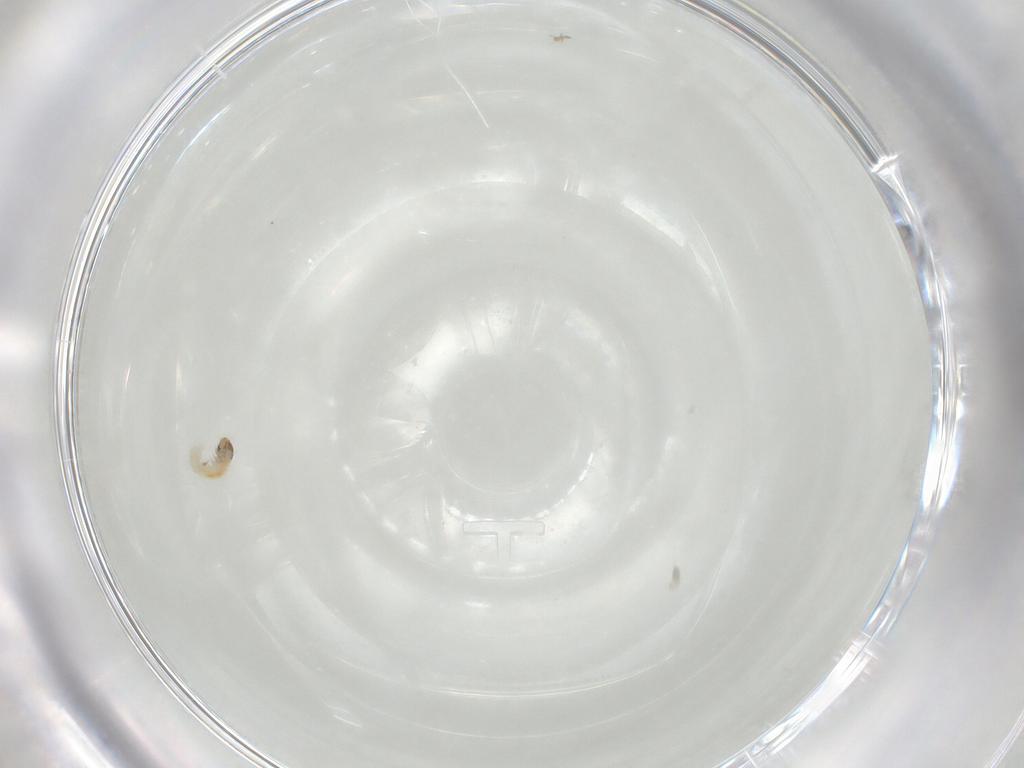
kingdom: Animalia
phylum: Arthropoda
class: Insecta
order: Lepidoptera
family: Lecithoceridae
